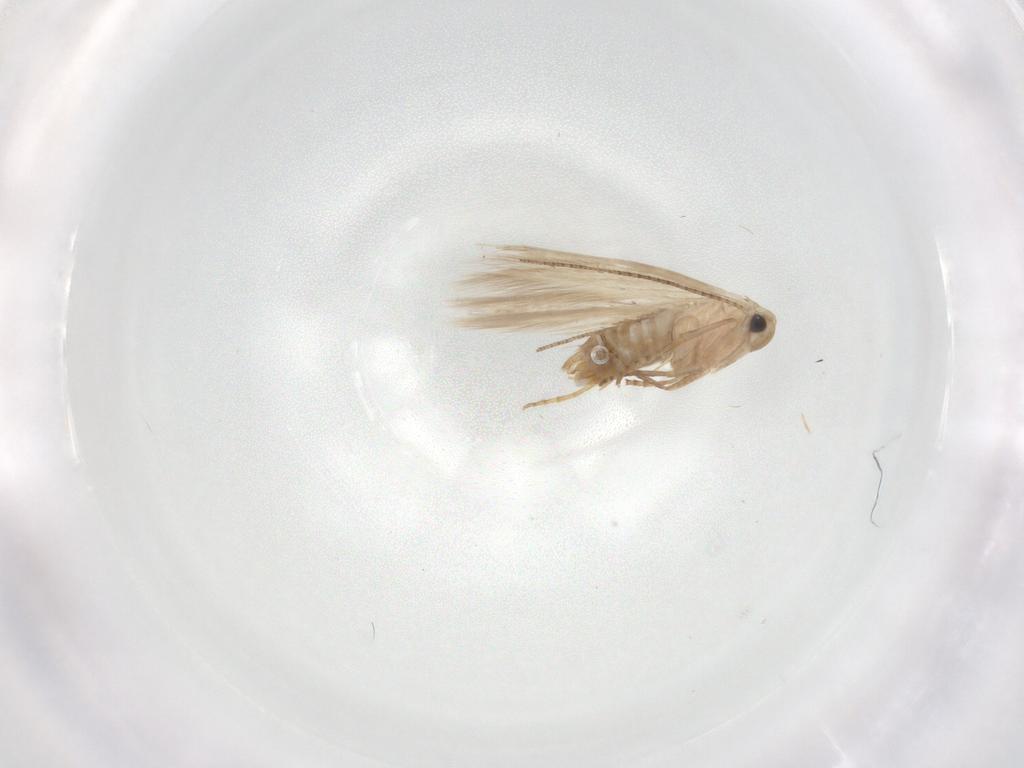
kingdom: Animalia
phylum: Arthropoda
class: Insecta
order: Lepidoptera
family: Bucculatricidae
